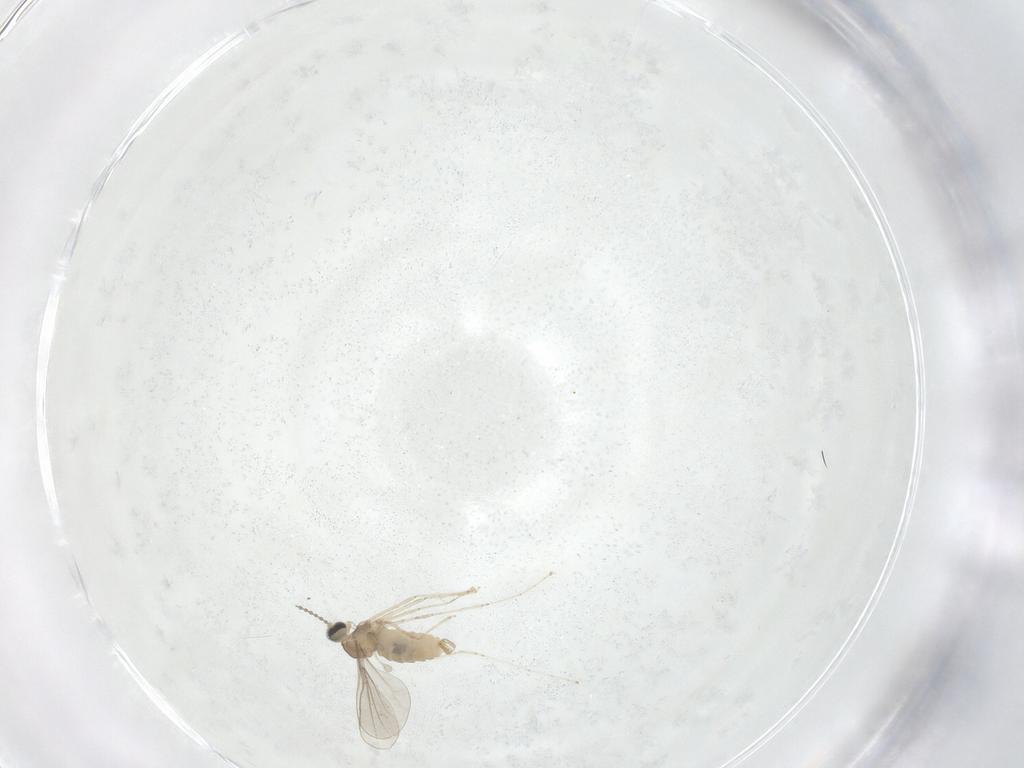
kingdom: Animalia
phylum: Arthropoda
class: Insecta
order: Diptera
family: Cecidomyiidae
